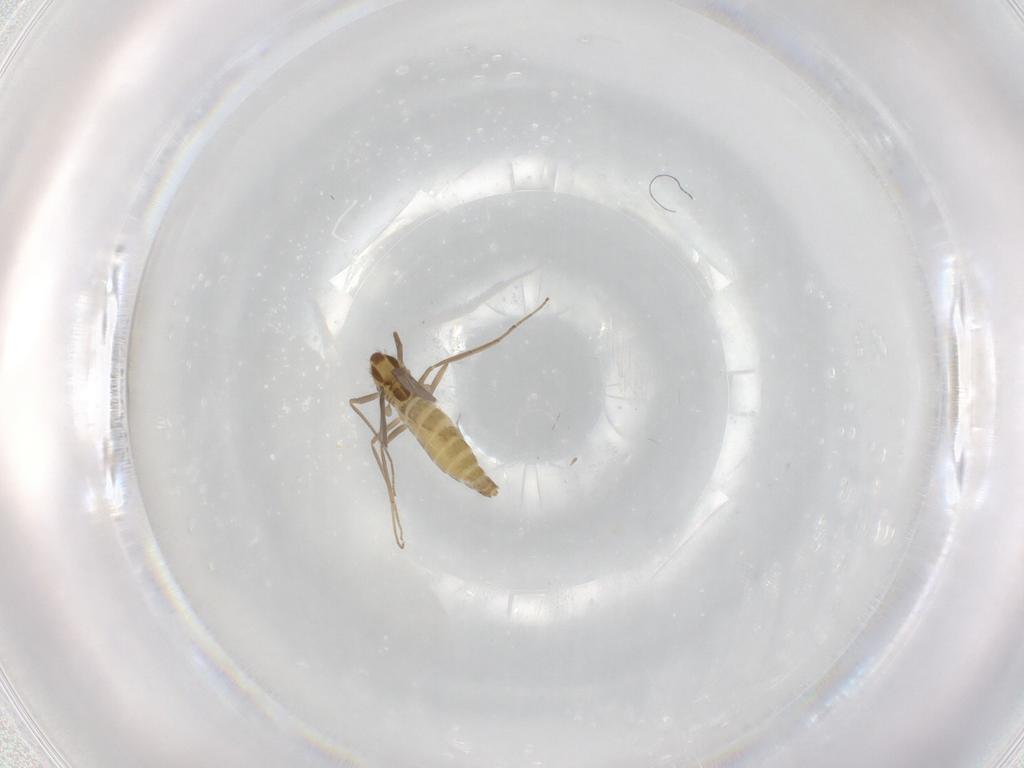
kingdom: Animalia
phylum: Arthropoda
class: Insecta
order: Diptera
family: Chironomidae
